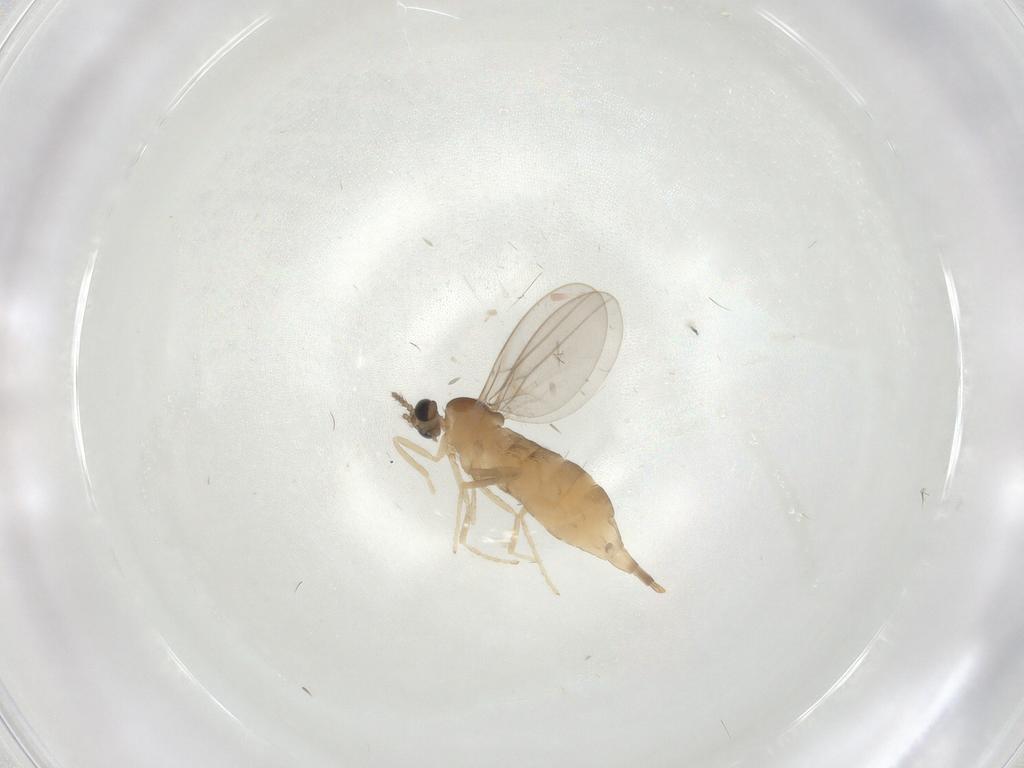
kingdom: Animalia
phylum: Arthropoda
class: Insecta
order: Diptera
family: Cecidomyiidae
